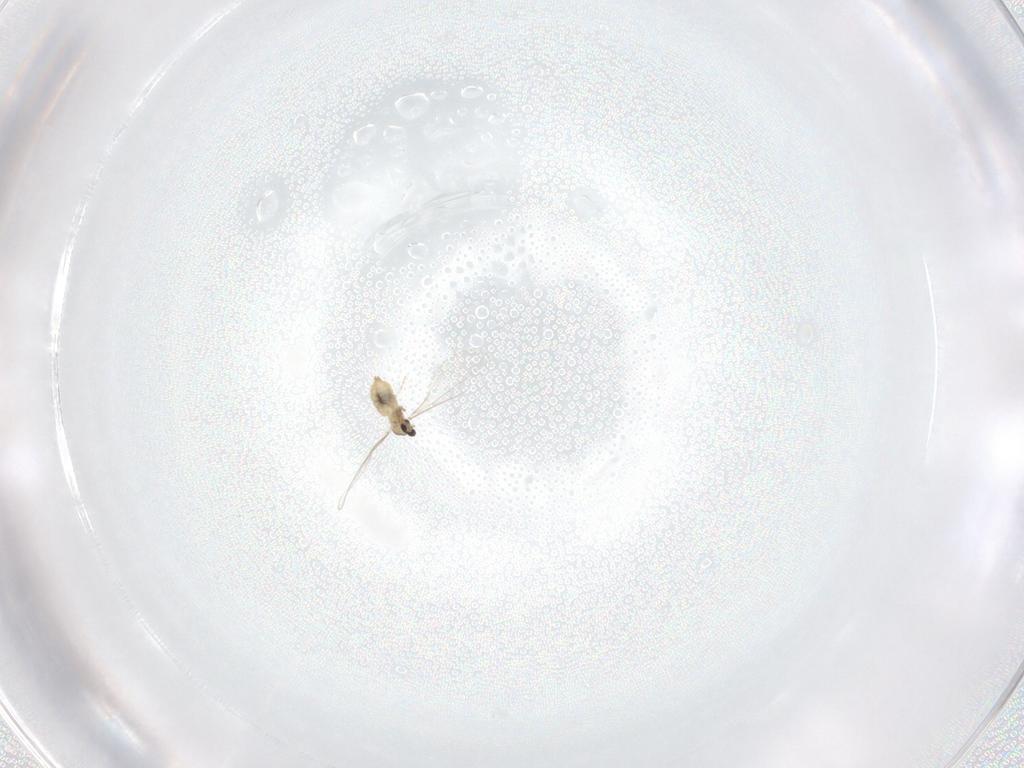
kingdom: Animalia
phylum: Arthropoda
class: Insecta
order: Diptera
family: Cecidomyiidae
